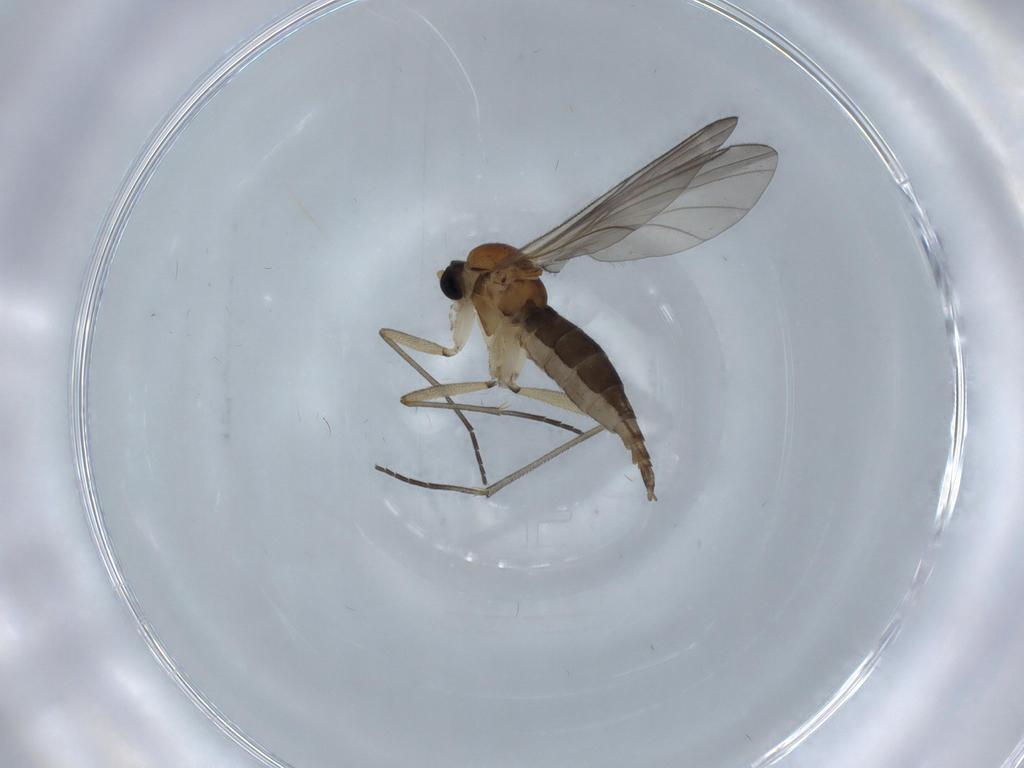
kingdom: Animalia
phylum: Arthropoda
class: Insecta
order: Diptera
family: Sciaridae
